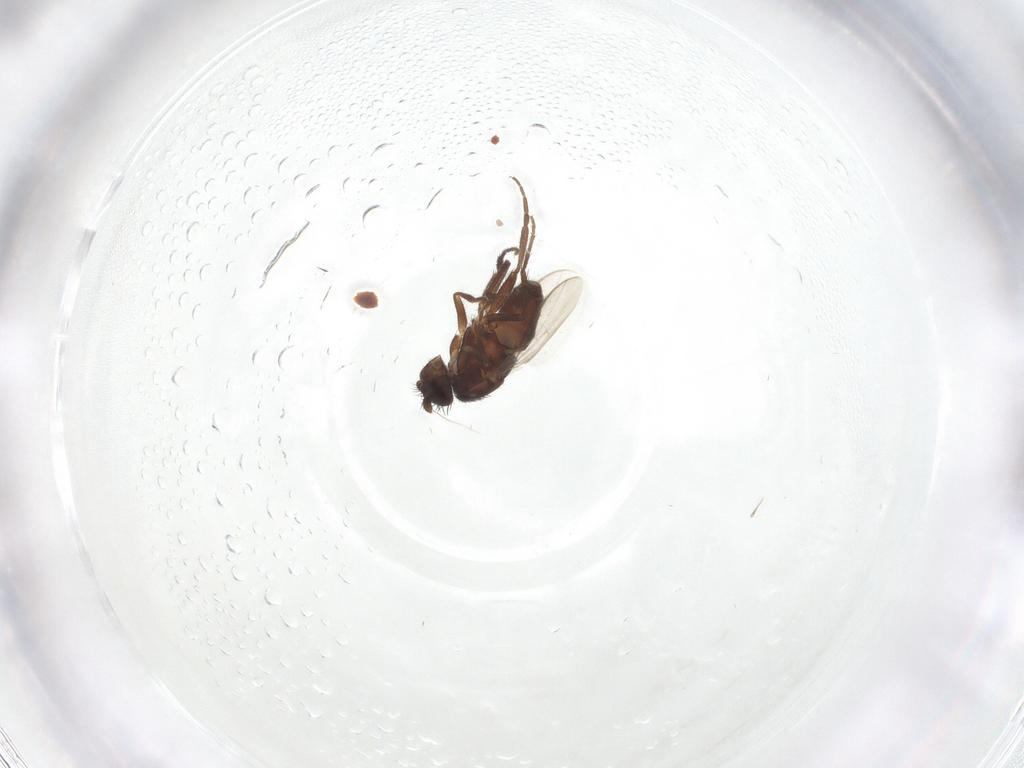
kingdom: Animalia
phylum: Arthropoda
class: Insecta
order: Diptera
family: Sphaeroceridae
